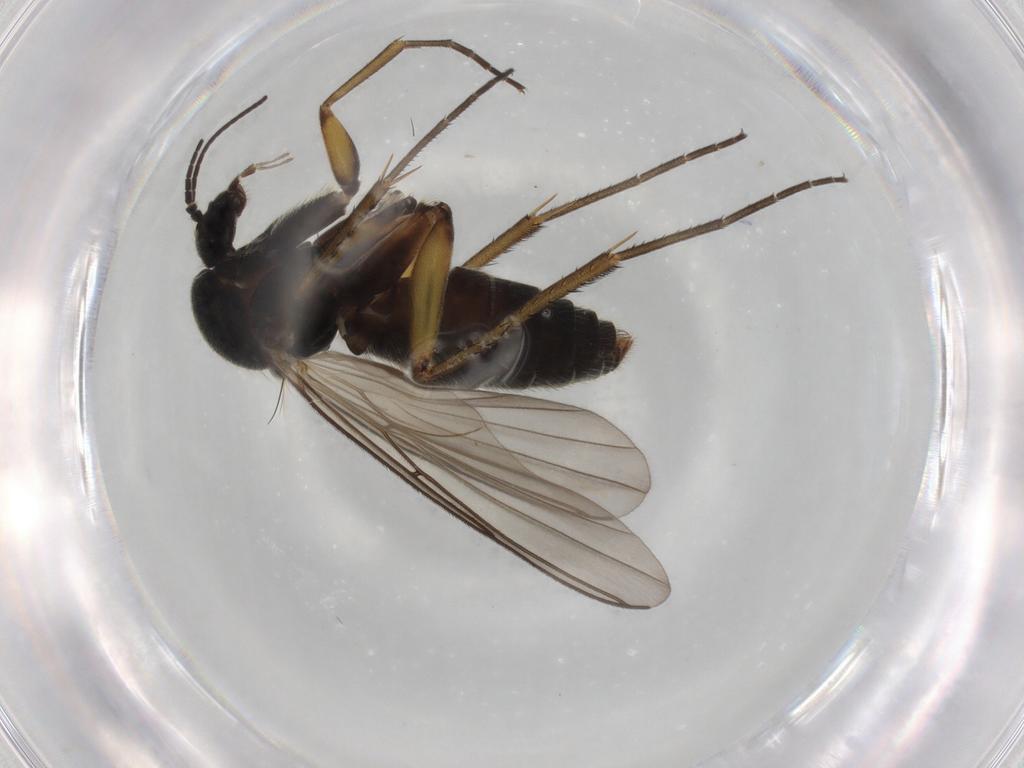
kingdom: Animalia
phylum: Arthropoda
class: Insecta
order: Diptera
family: Mycetophilidae
